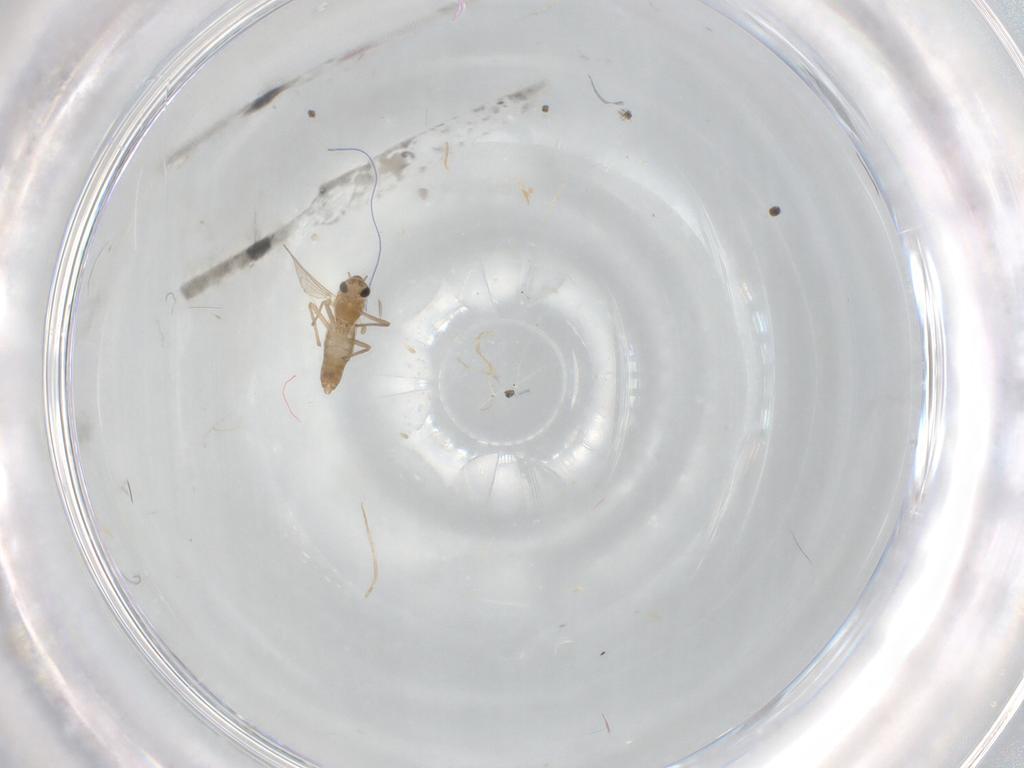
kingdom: Animalia
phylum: Arthropoda
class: Insecta
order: Diptera
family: Chironomidae
